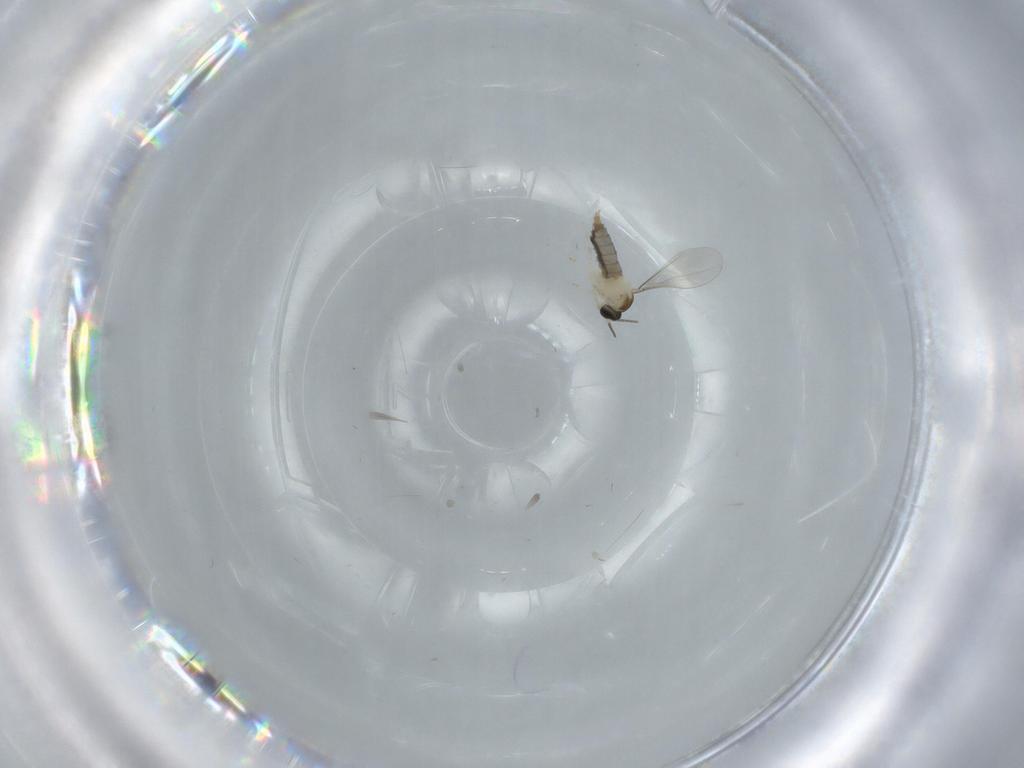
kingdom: Animalia
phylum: Arthropoda
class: Insecta
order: Diptera
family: Cecidomyiidae
